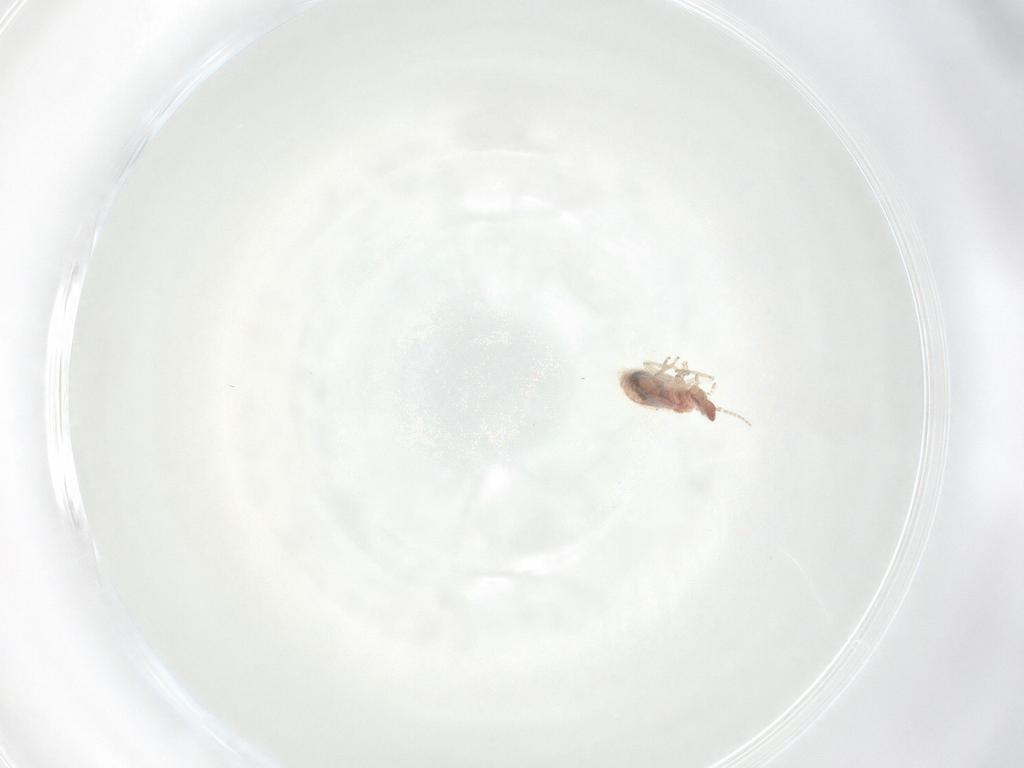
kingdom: Animalia
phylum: Arthropoda
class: Insecta
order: Psocodea
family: Archipsocidae
